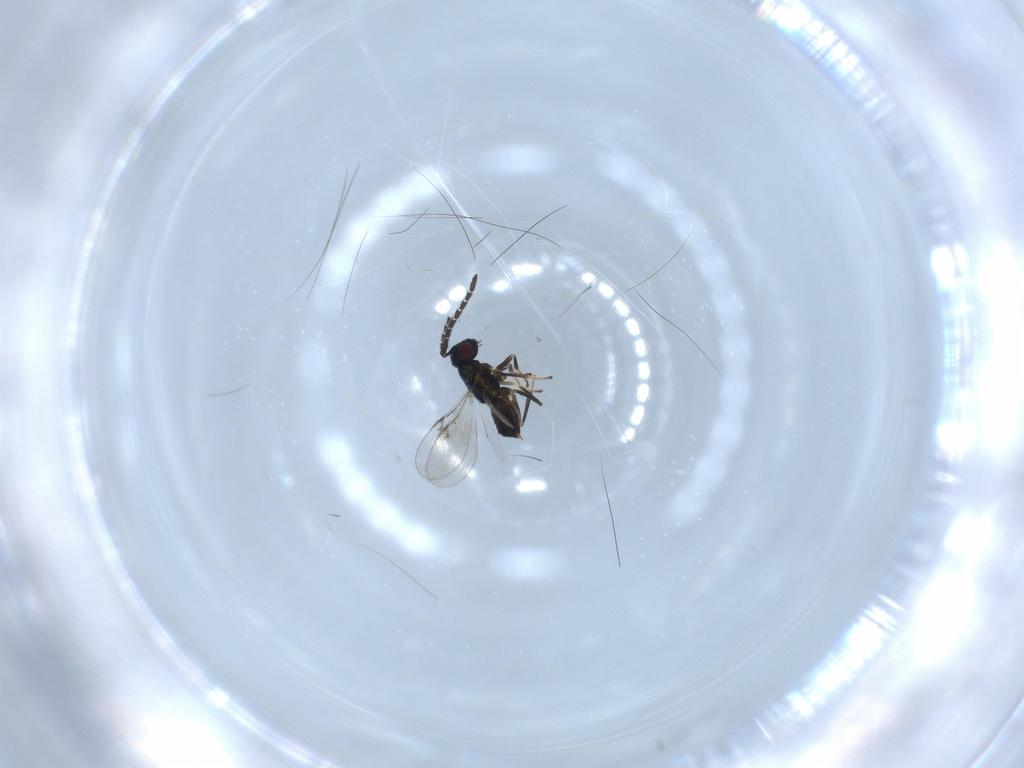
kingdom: Animalia
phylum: Arthropoda
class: Insecta
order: Hymenoptera
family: Encyrtidae
